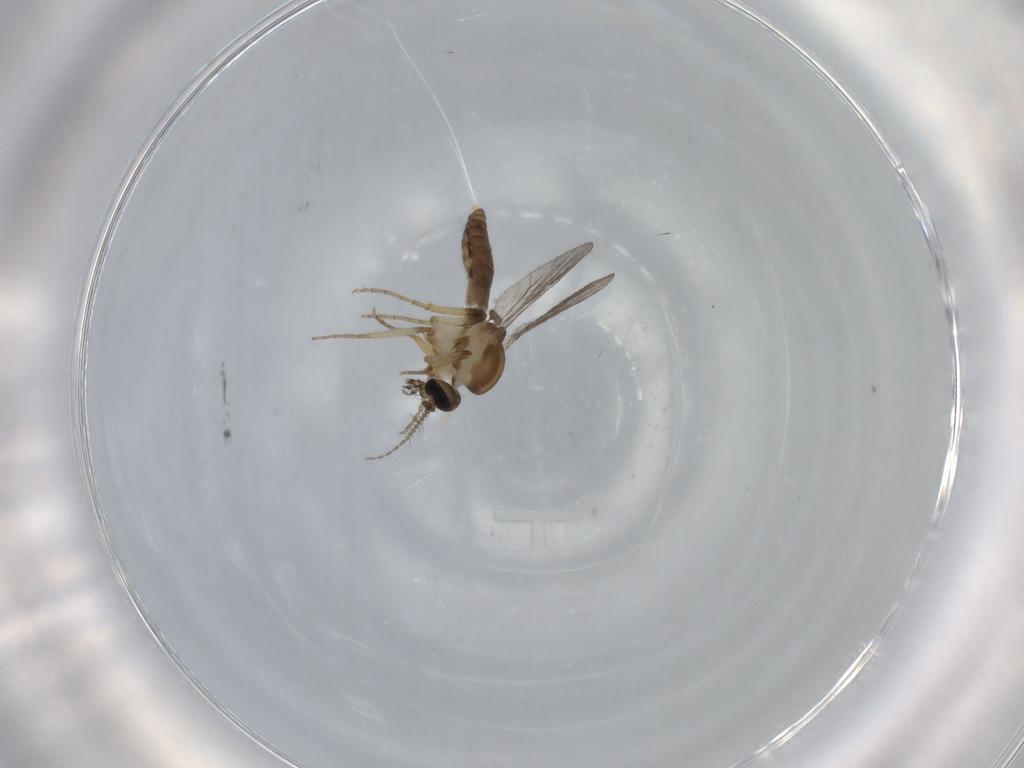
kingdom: Animalia
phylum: Arthropoda
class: Insecta
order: Diptera
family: Ceratopogonidae
